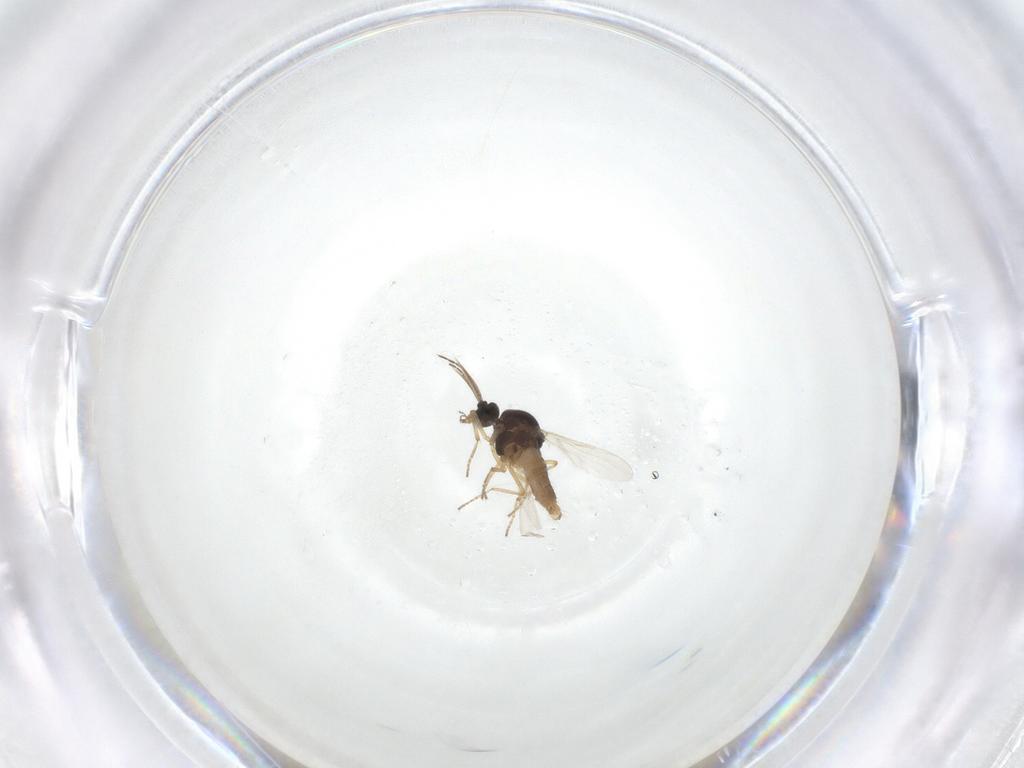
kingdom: Animalia
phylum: Arthropoda
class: Insecta
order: Diptera
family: Ceratopogonidae
